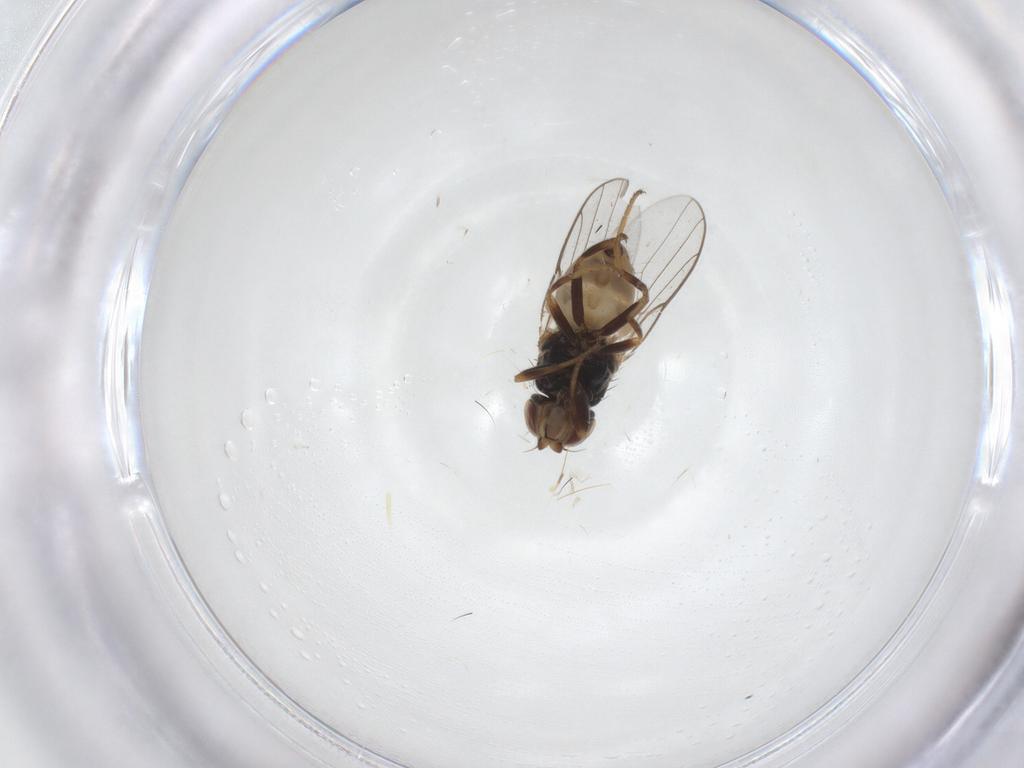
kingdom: Animalia
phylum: Arthropoda
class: Insecta
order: Diptera
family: Chloropidae
